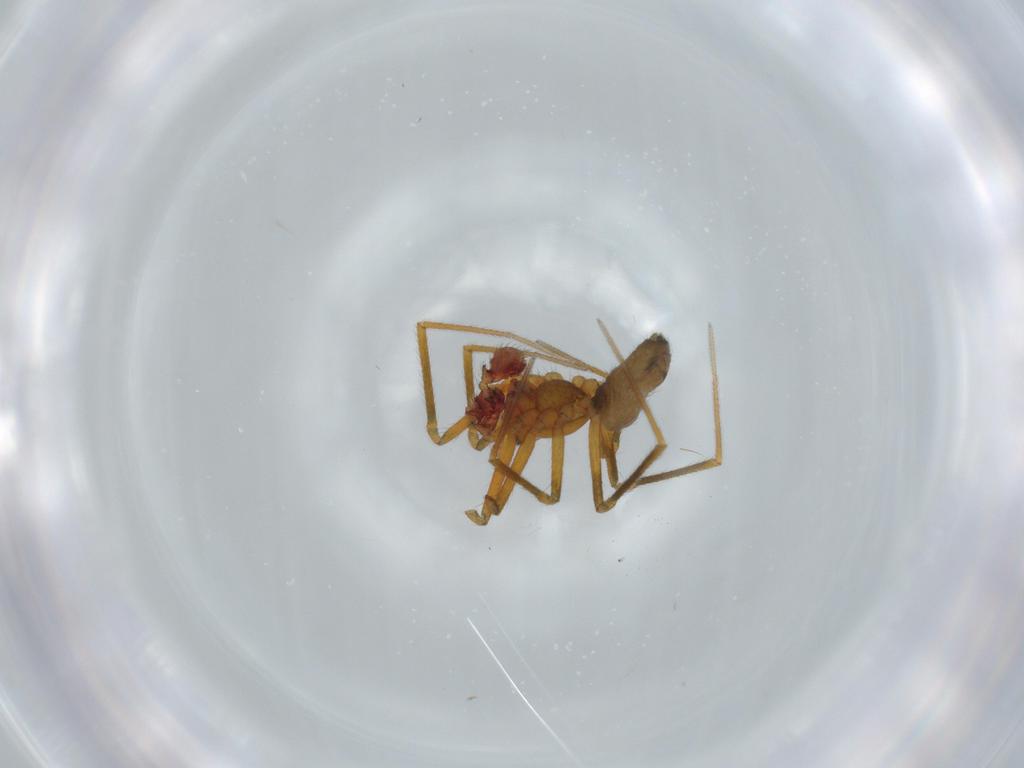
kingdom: Animalia
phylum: Arthropoda
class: Arachnida
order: Araneae
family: Linyphiidae
